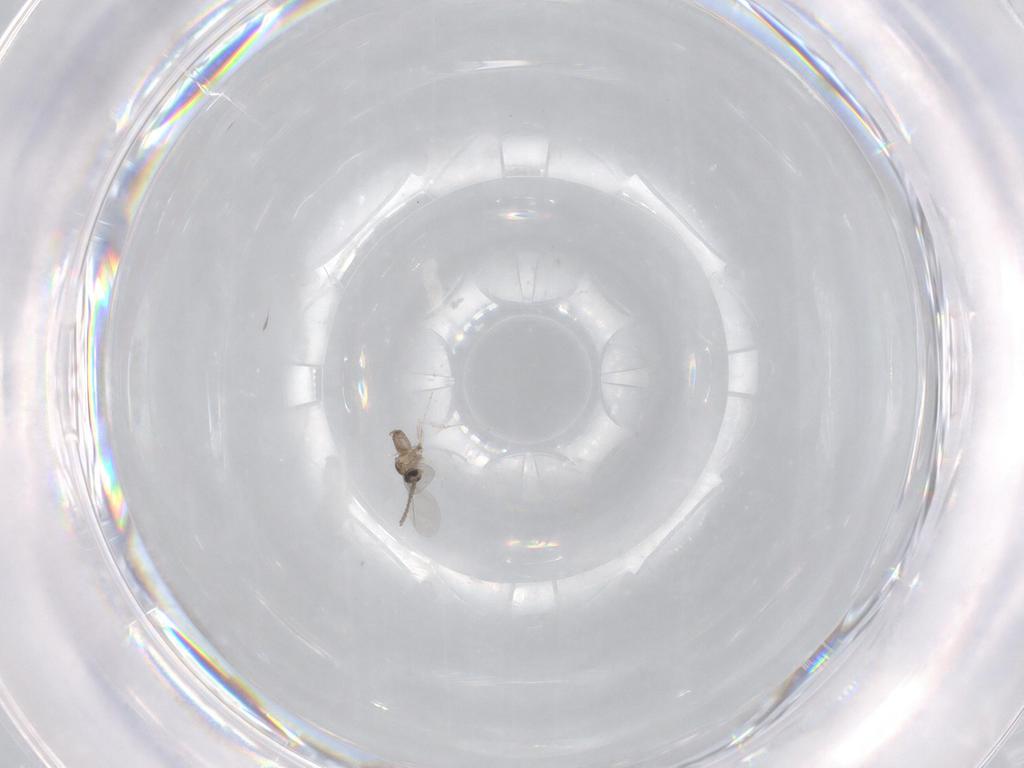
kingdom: Animalia
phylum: Arthropoda
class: Insecta
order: Diptera
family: Cecidomyiidae
